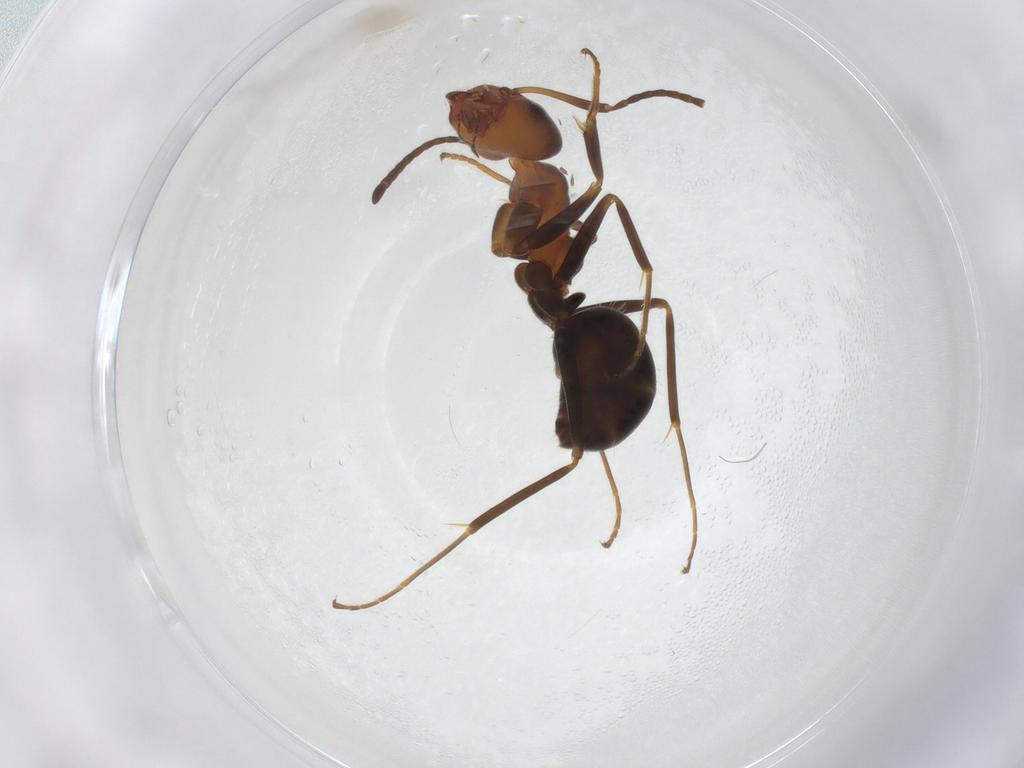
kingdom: Animalia
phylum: Arthropoda
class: Insecta
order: Hymenoptera
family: Formicidae
